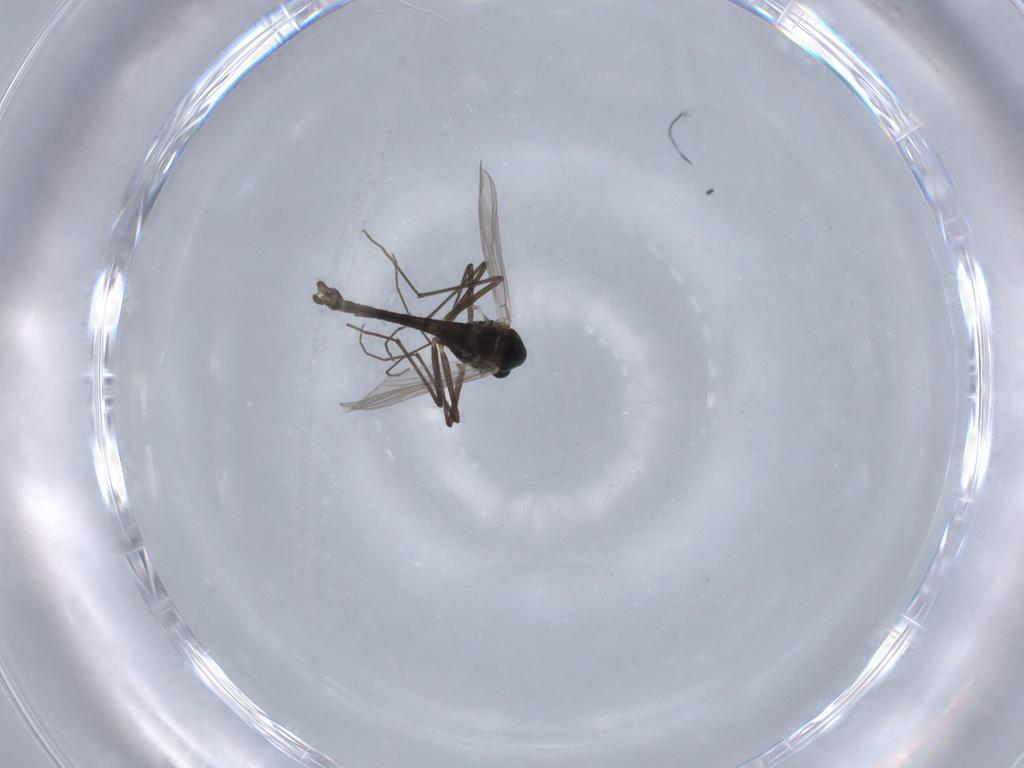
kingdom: Animalia
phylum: Arthropoda
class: Insecta
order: Diptera
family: Chironomidae
